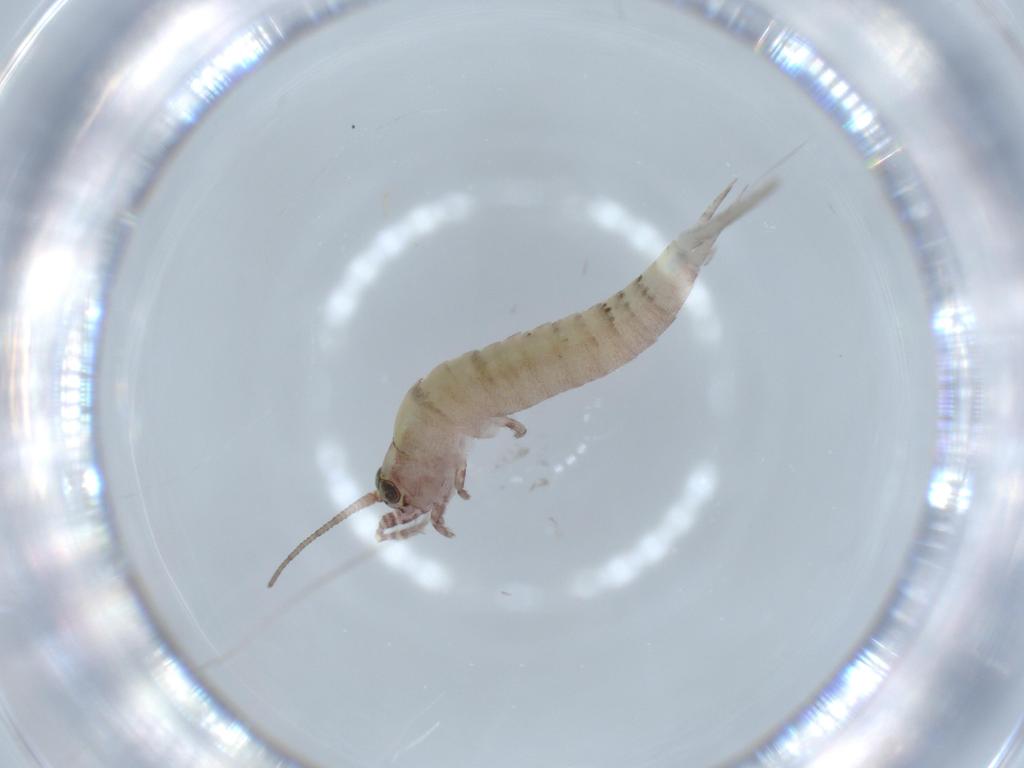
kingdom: Animalia
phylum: Arthropoda
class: Insecta
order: Archaeognatha
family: Machilidae
